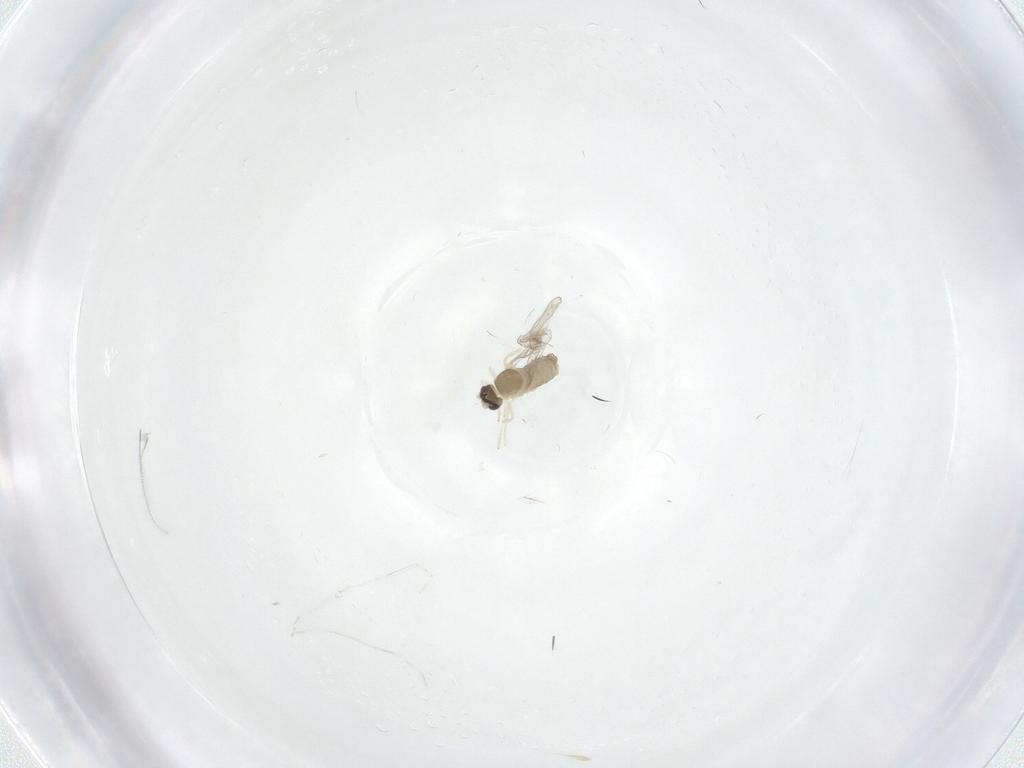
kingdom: Animalia
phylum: Arthropoda
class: Insecta
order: Diptera
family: Cecidomyiidae
